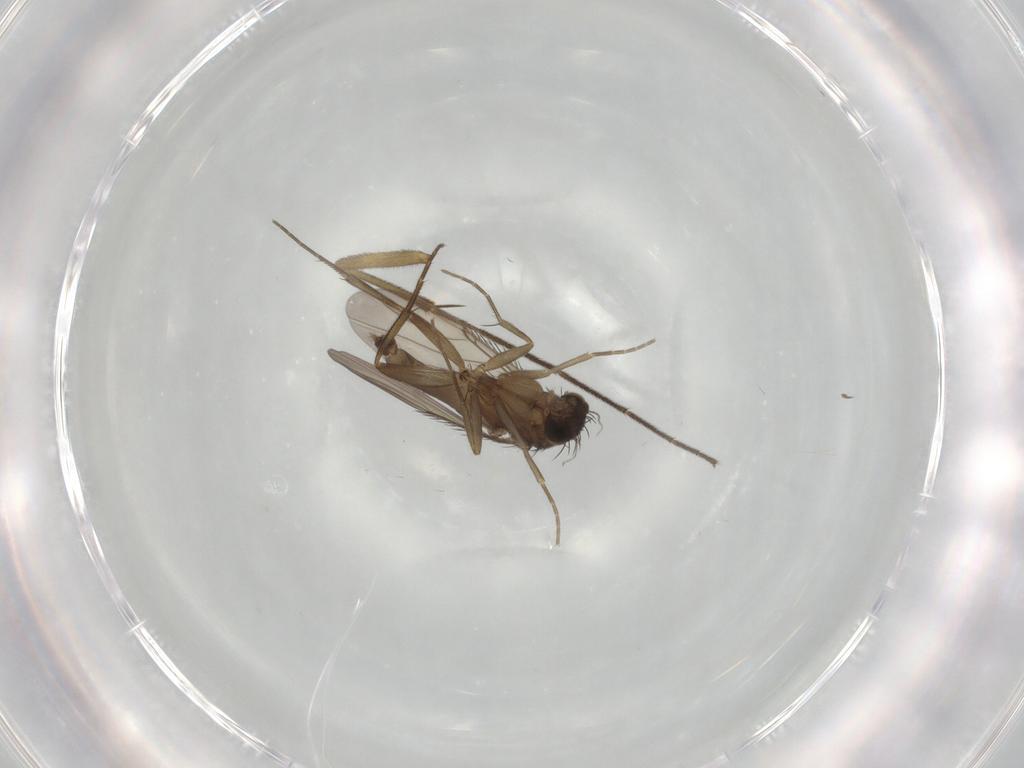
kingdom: Animalia
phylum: Arthropoda
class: Insecta
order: Diptera
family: Phoridae
